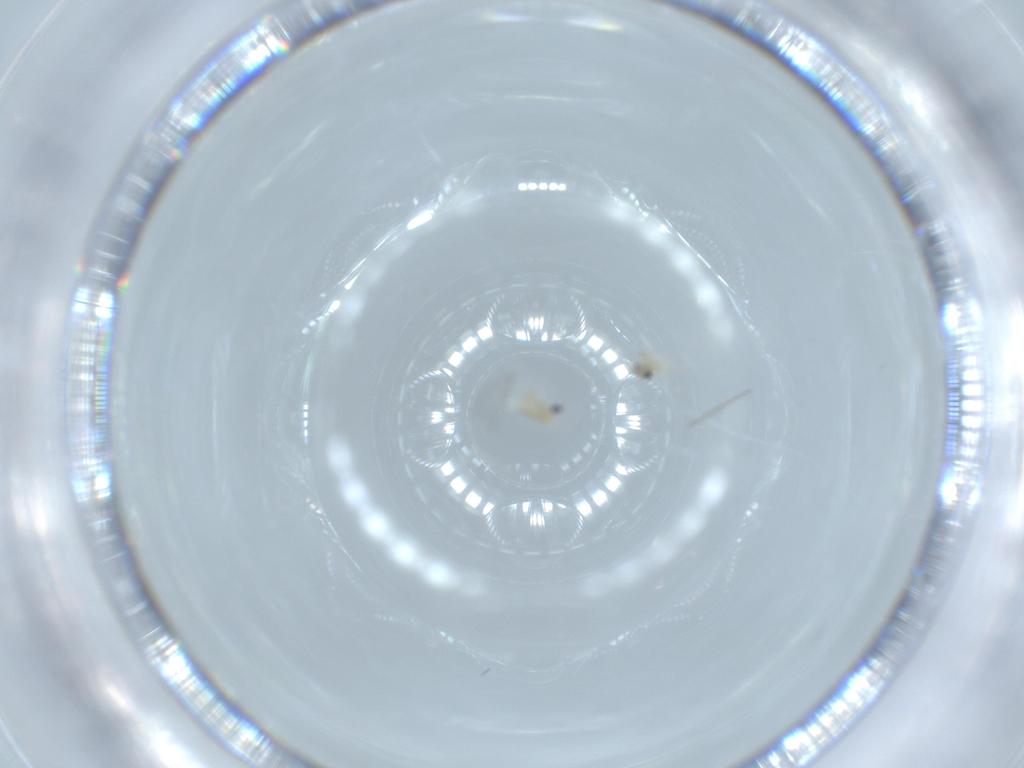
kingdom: Animalia
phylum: Arthropoda
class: Insecta
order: Diptera
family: Cecidomyiidae
